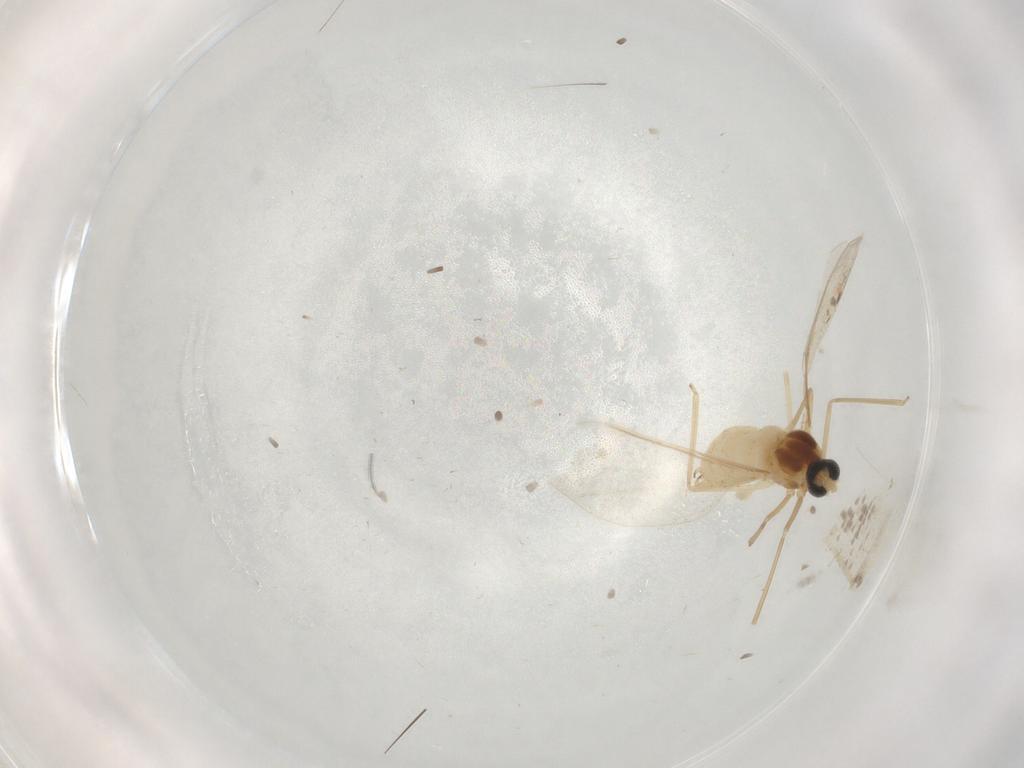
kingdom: Animalia
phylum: Arthropoda
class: Insecta
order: Diptera
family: Cecidomyiidae
